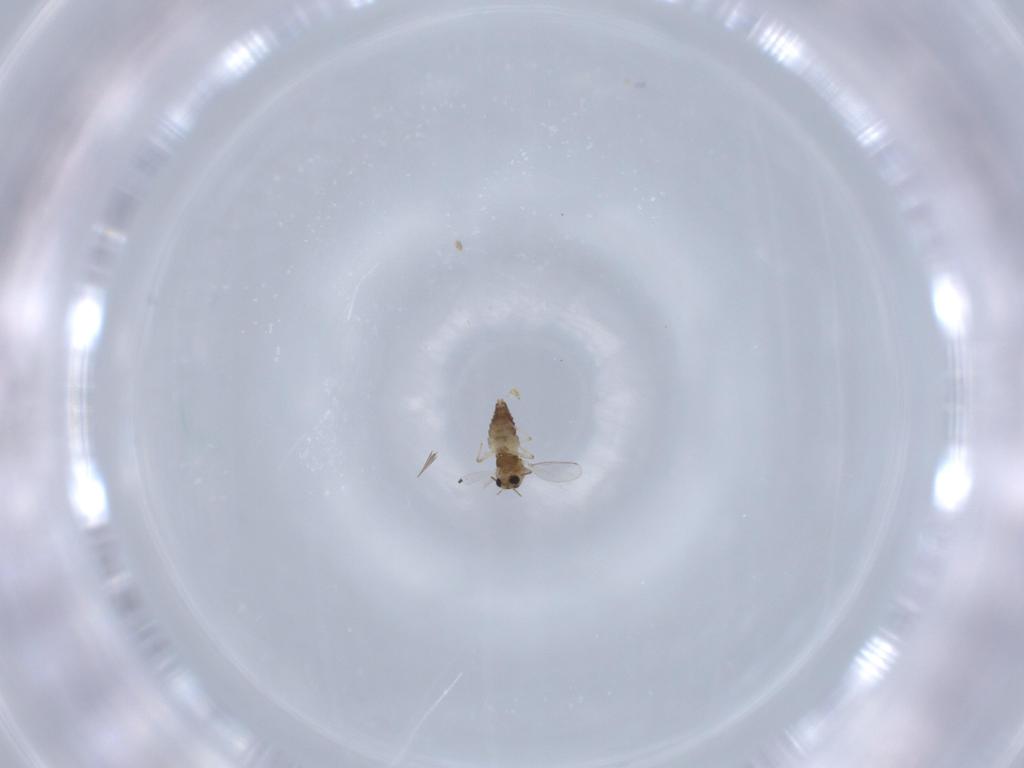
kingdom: Animalia
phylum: Arthropoda
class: Insecta
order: Diptera
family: Chironomidae
